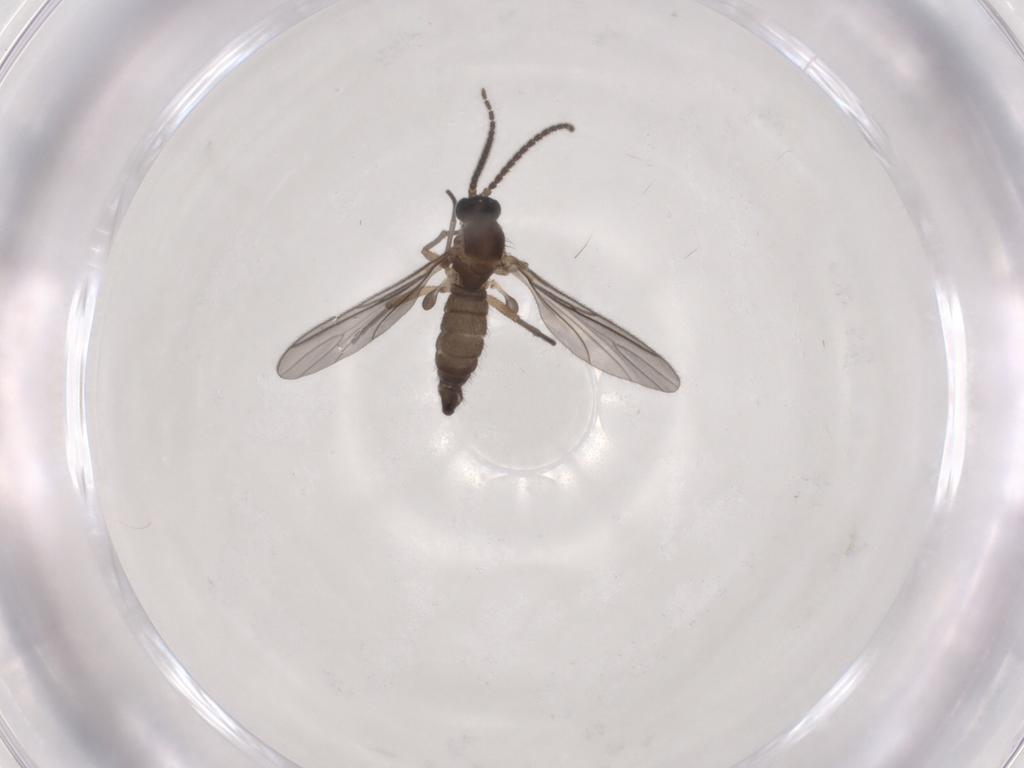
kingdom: Animalia
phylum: Arthropoda
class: Insecta
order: Diptera
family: Sciaridae
